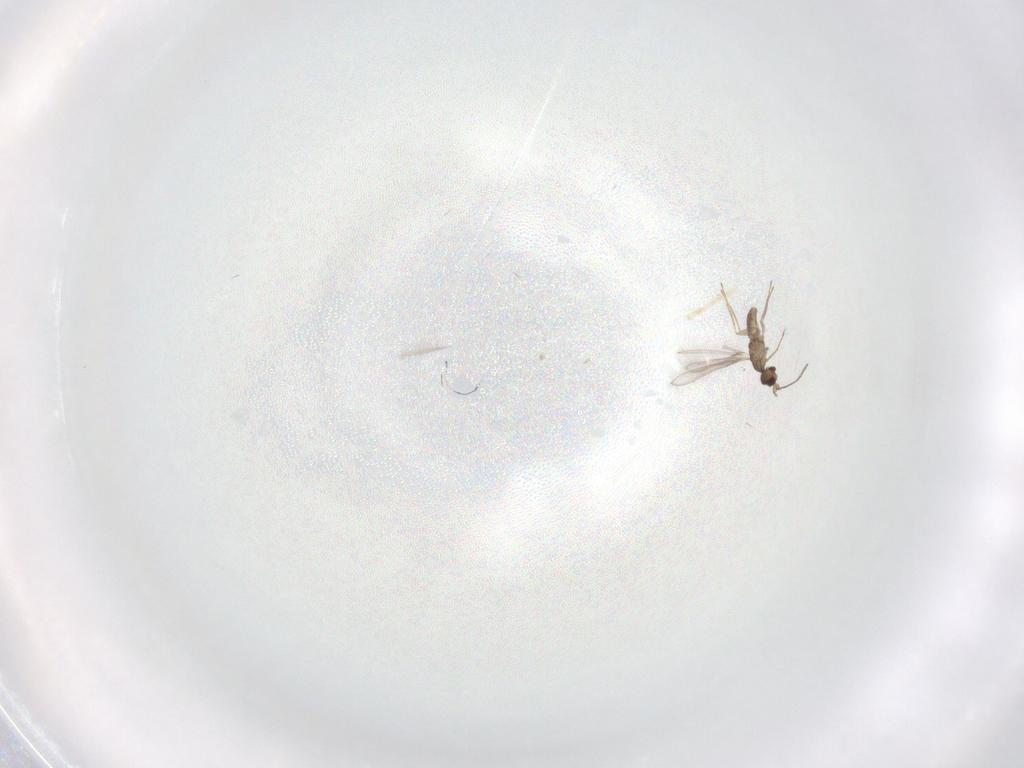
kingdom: Animalia
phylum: Arthropoda
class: Insecta
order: Hymenoptera
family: Mymaridae
